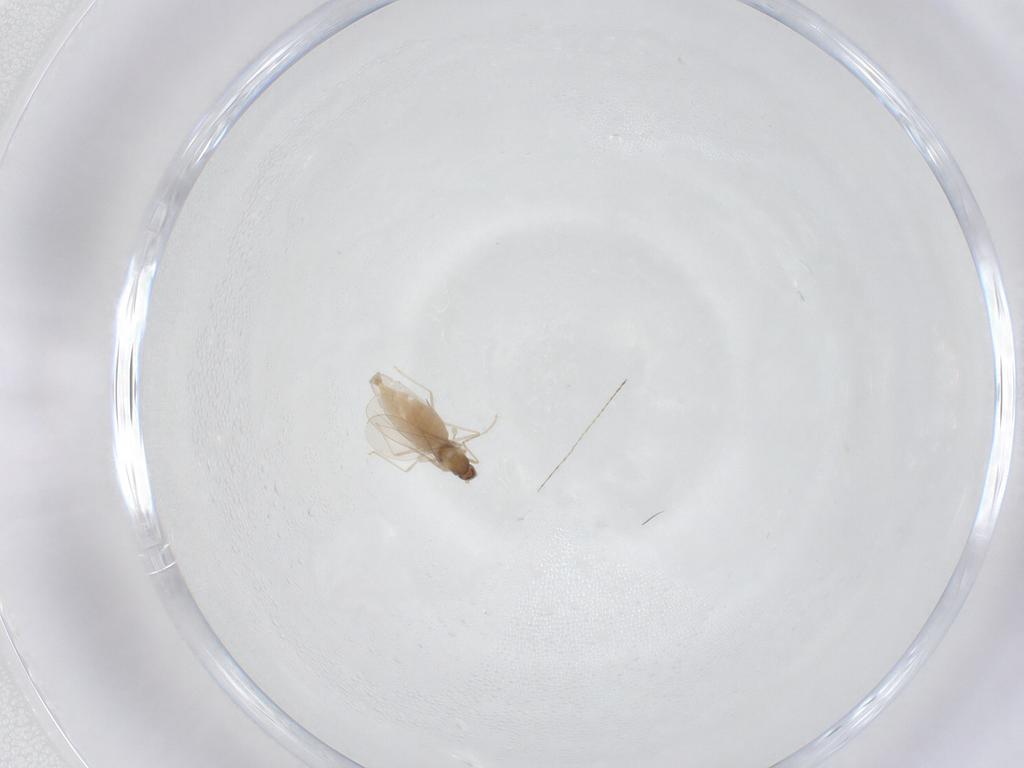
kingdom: Animalia
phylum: Arthropoda
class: Insecta
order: Diptera
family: Cecidomyiidae
